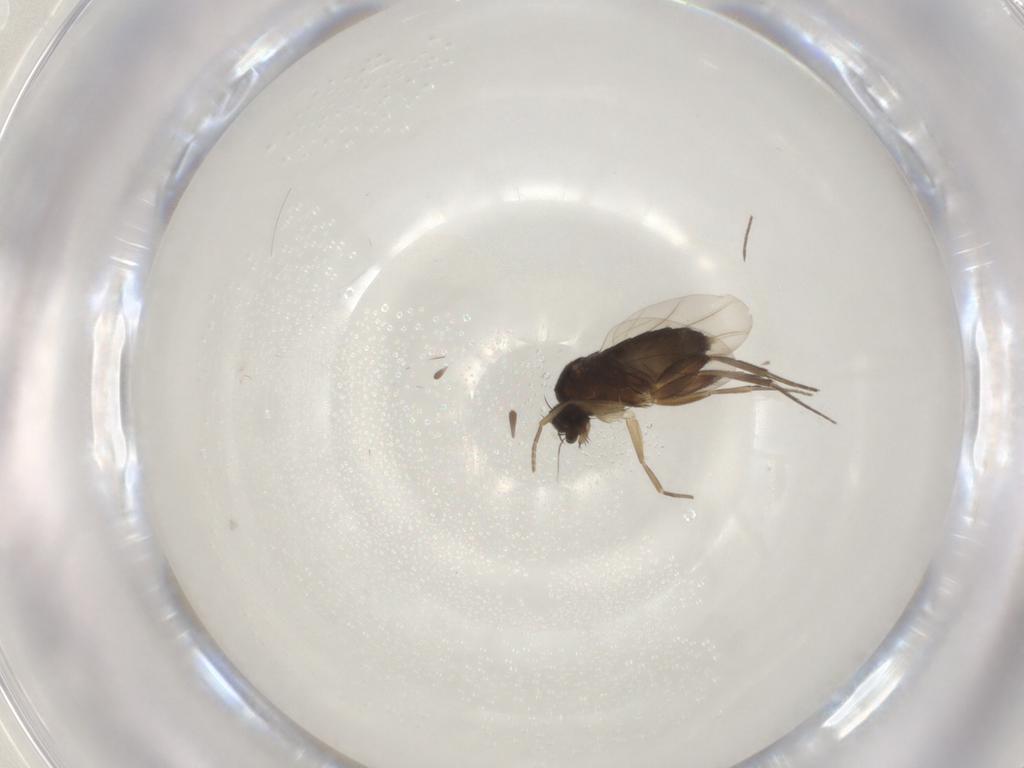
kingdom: Animalia
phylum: Arthropoda
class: Insecta
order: Diptera
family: Phoridae
